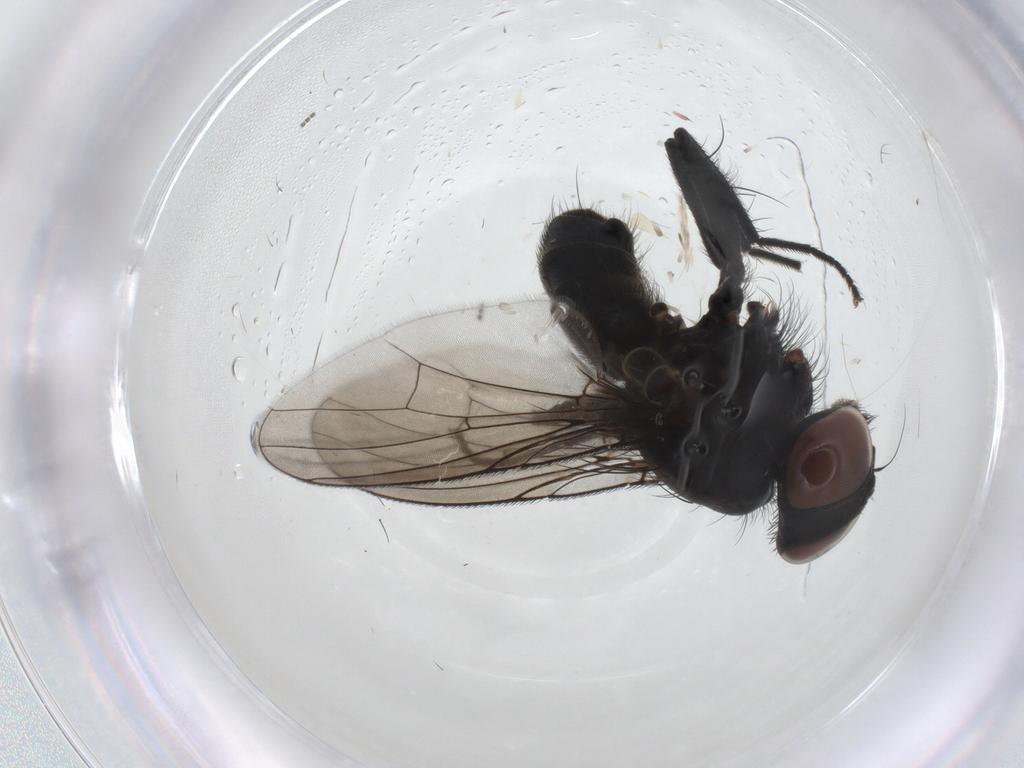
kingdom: Animalia
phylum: Arthropoda
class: Insecta
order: Diptera
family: Muscidae
